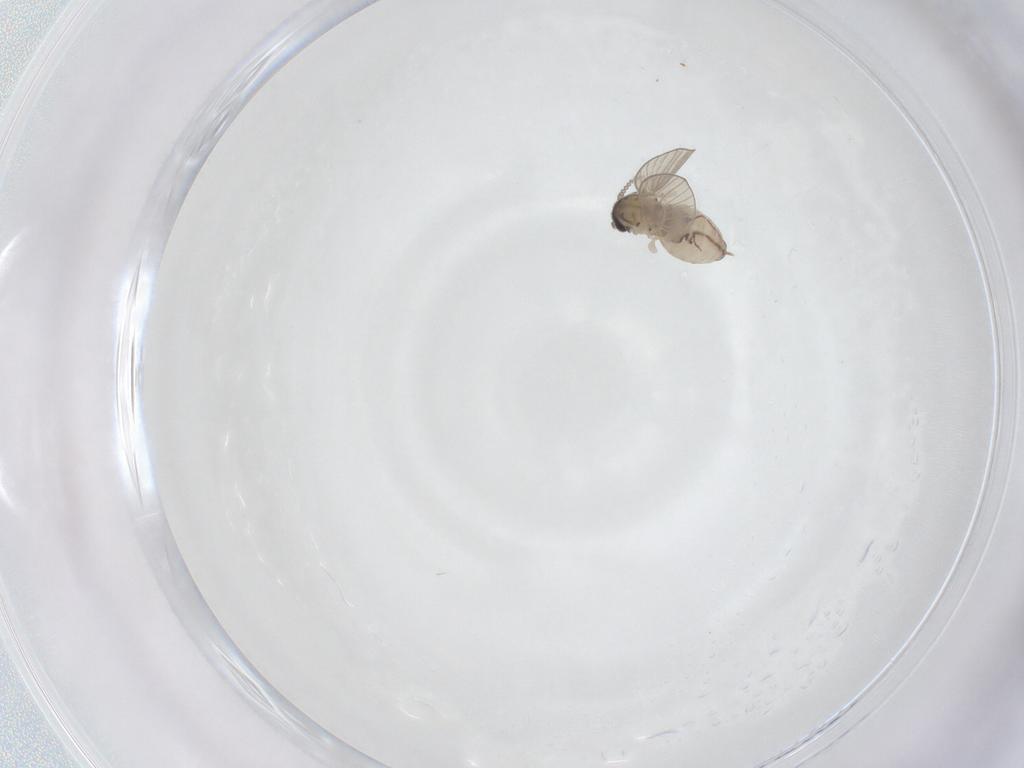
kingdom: Animalia
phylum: Arthropoda
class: Insecta
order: Diptera
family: Psychodidae
